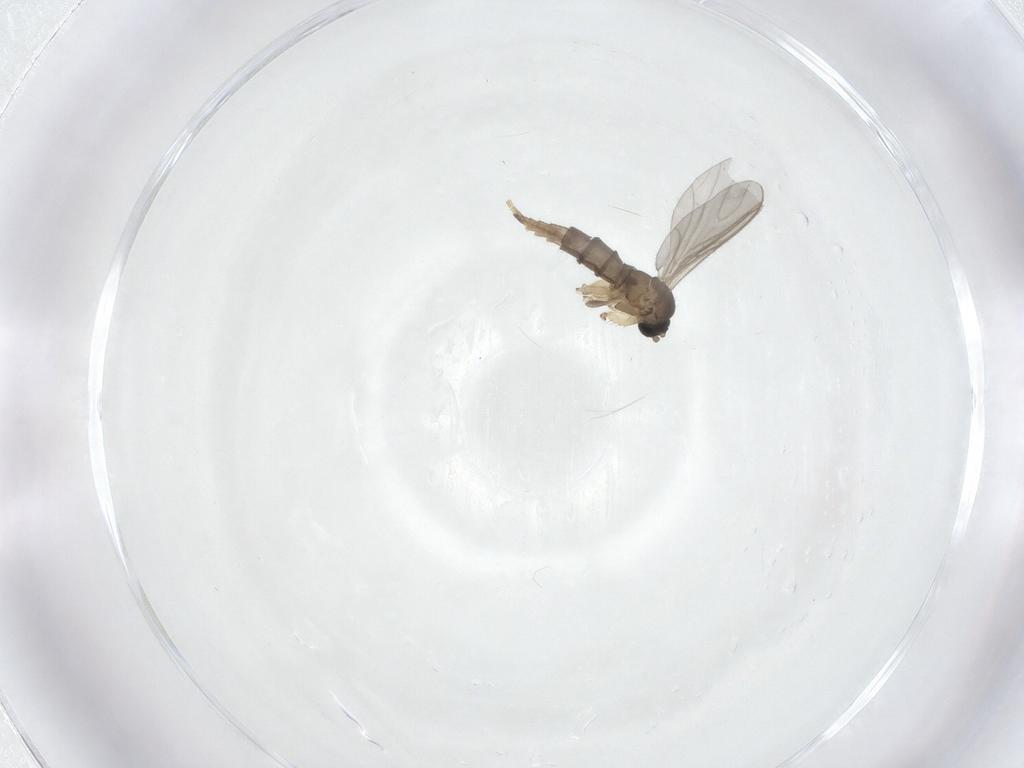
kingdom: Animalia
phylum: Arthropoda
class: Insecta
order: Diptera
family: Sciaridae
